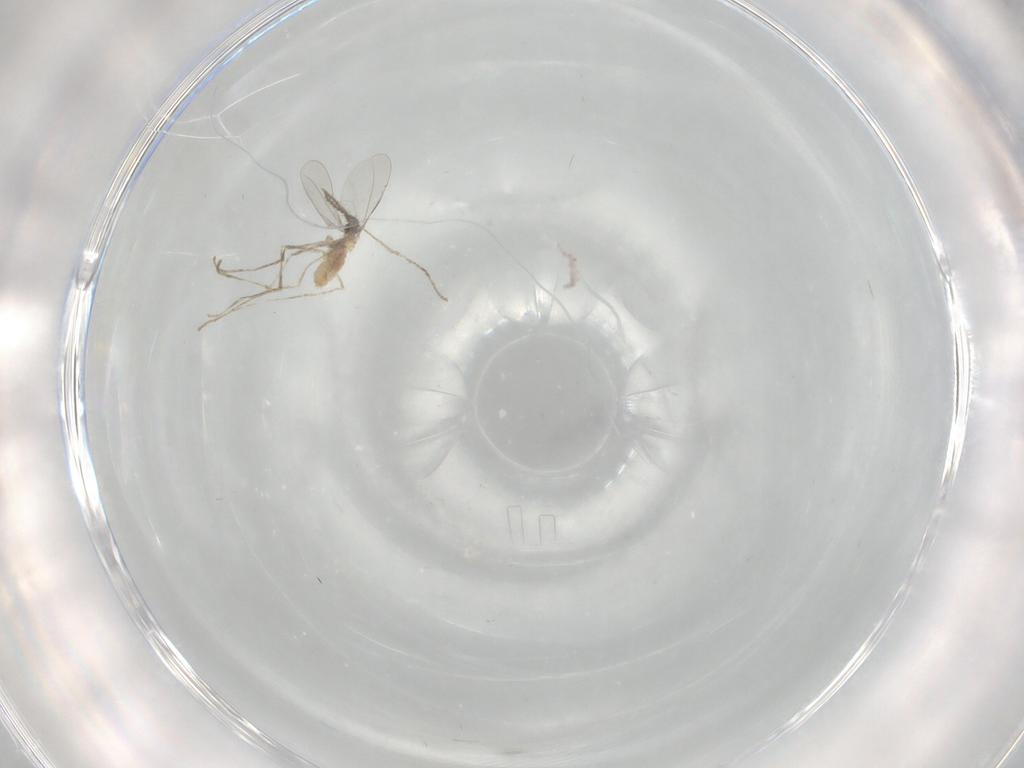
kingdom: Animalia
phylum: Arthropoda
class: Insecta
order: Diptera
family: Cecidomyiidae
